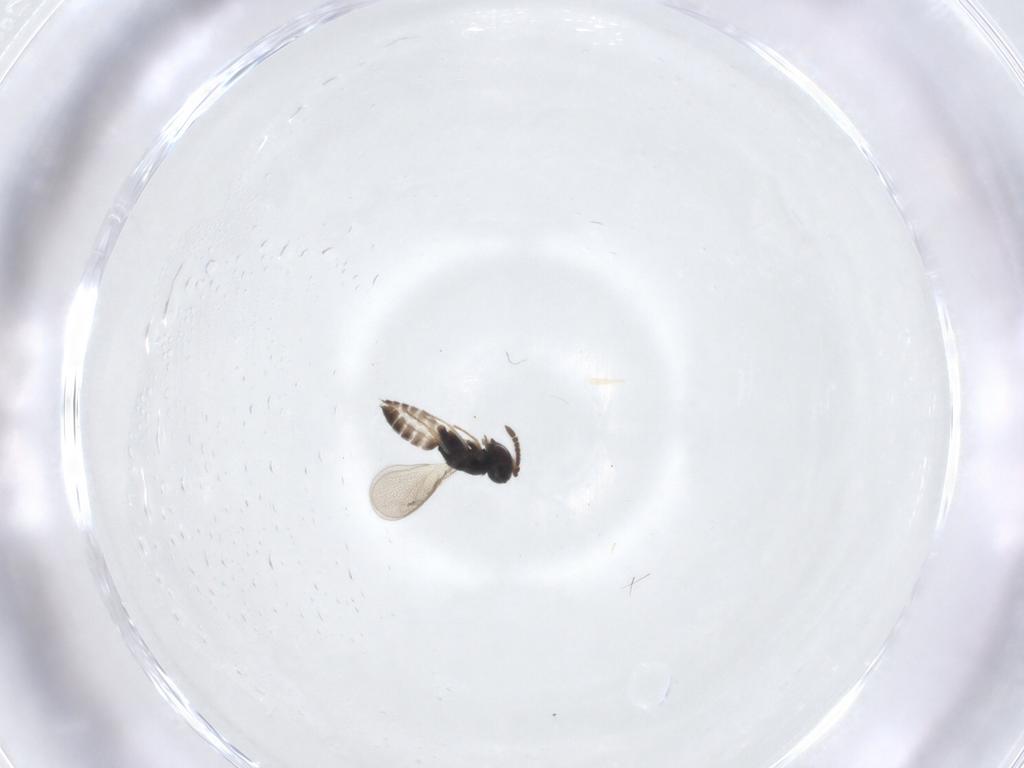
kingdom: Animalia
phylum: Arthropoda
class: Insecta
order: Hymenoptera
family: Pteromalidae
